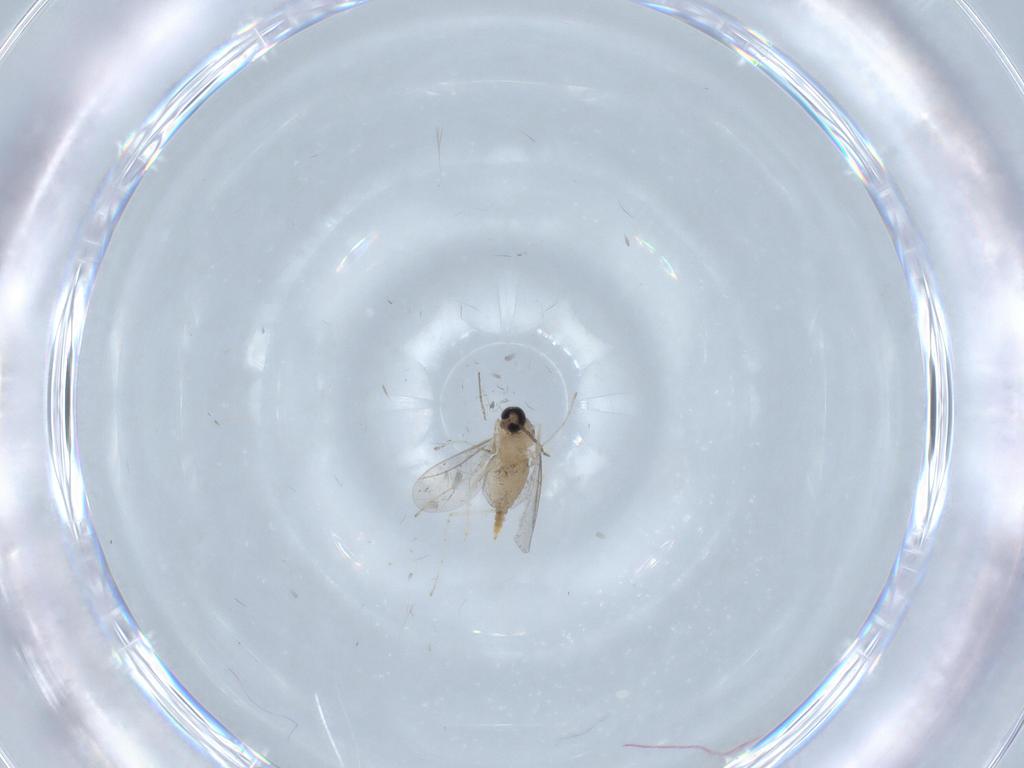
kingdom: Animalia
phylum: Arthropoda
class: Insecta
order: Diptera
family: Cecidomyiidae
